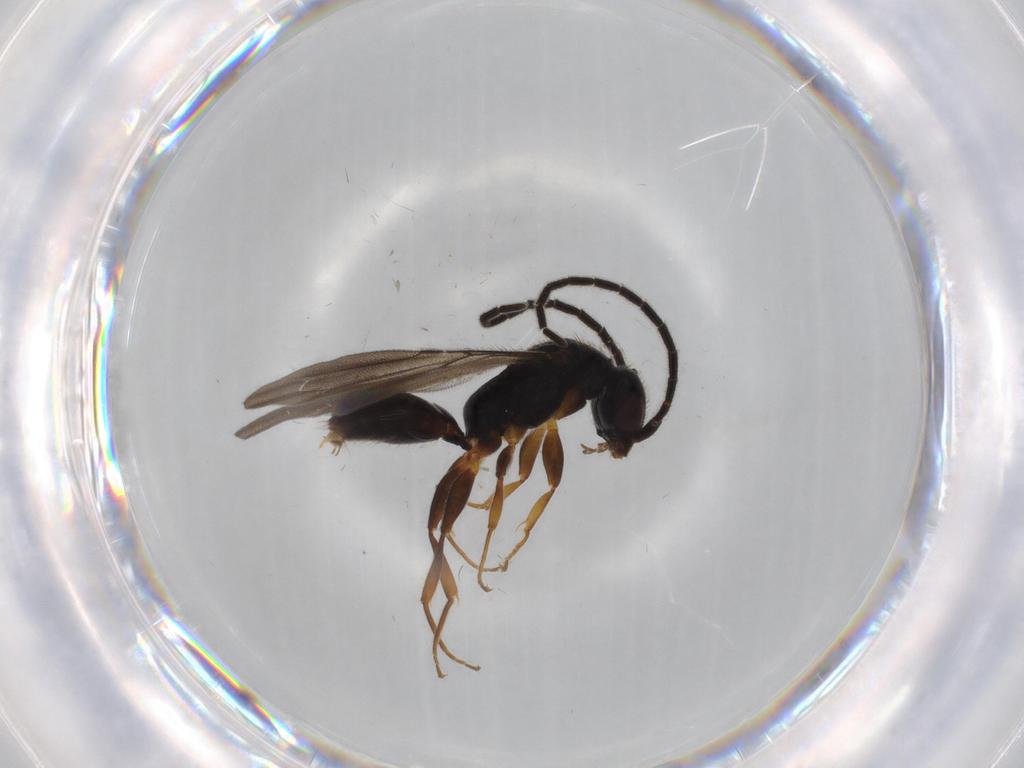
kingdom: Animalia
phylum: Arthropoda
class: Insecta
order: Hymenoptera
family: Bethylidae
